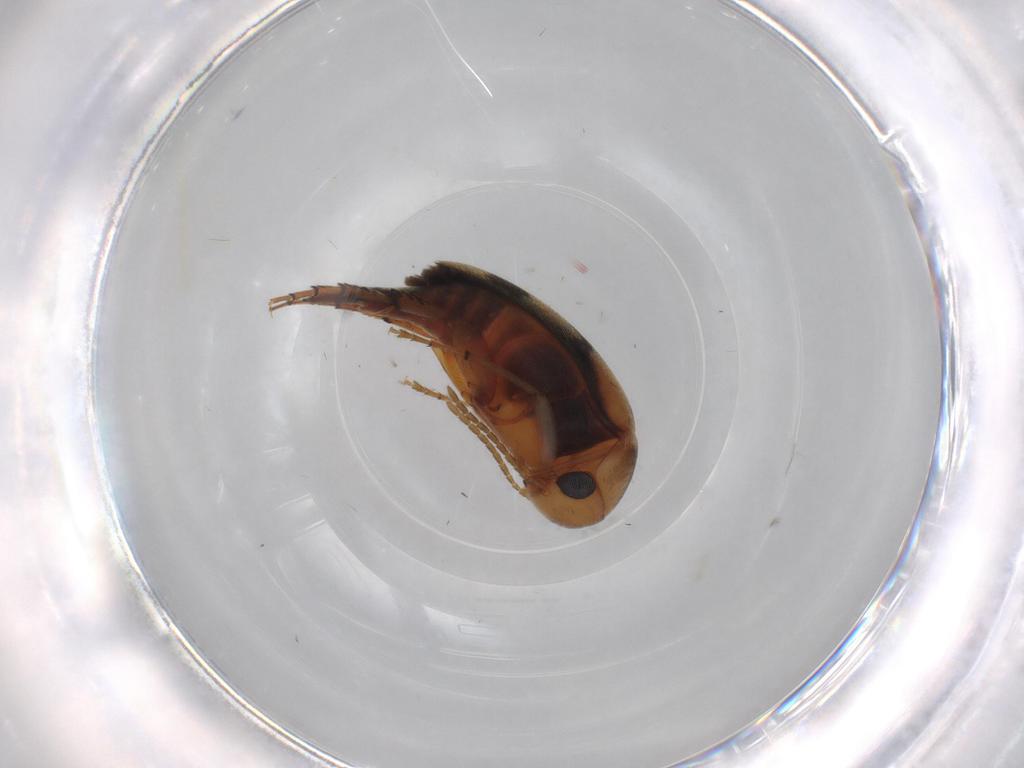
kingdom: Animalia
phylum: Arthropoda
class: Insecta
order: Coleoptera
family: Mordellidae
